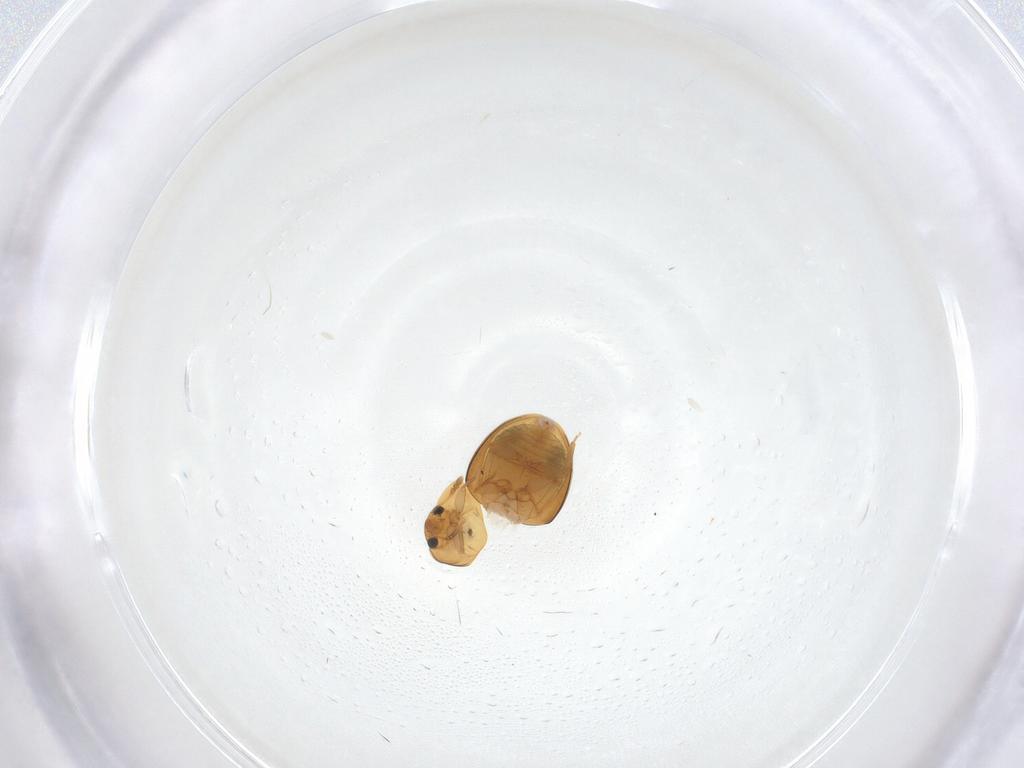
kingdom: Animalia
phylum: Arthropoda
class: Insecta
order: Coleoptera
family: Phalacridae
